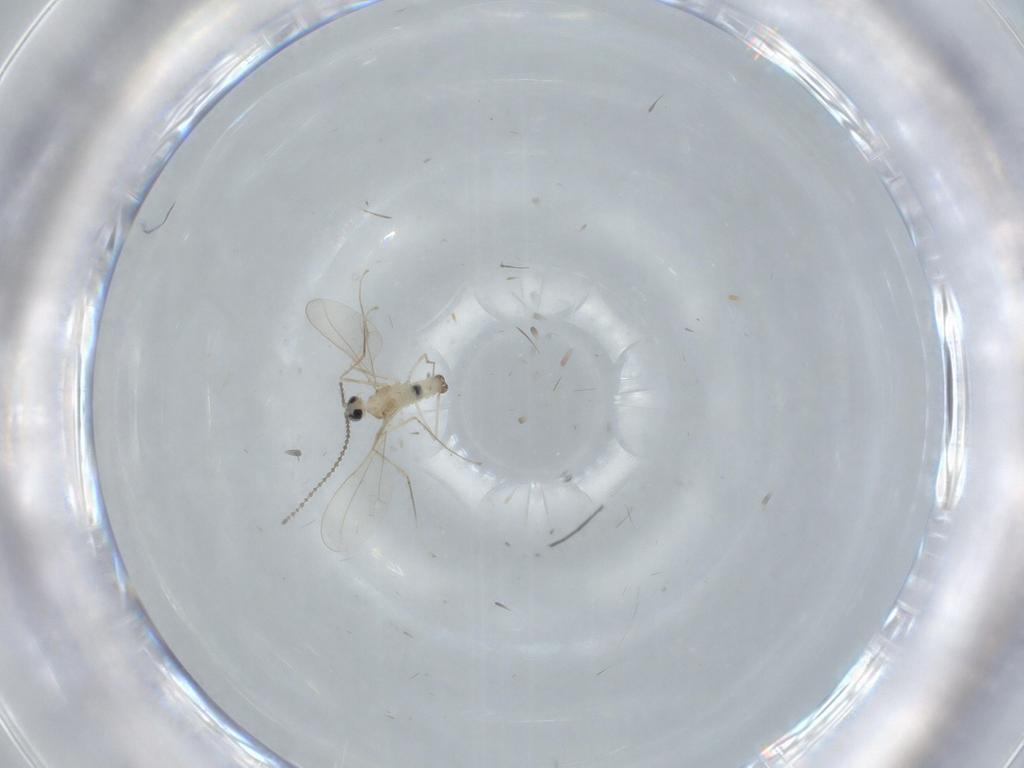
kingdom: Animalia
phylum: Arthropoda
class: Insecta
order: Diptera
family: Cecidomyiidae
